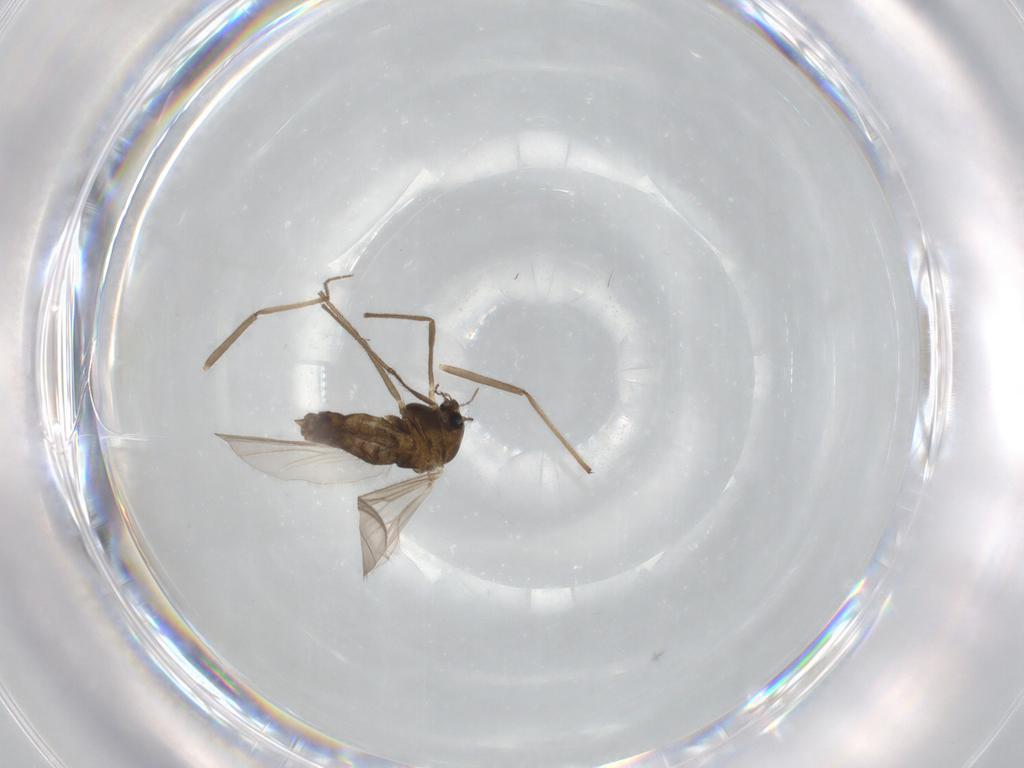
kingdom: Animalia
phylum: Arthropoda
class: Insecta
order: Diptera
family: Chironomidae
